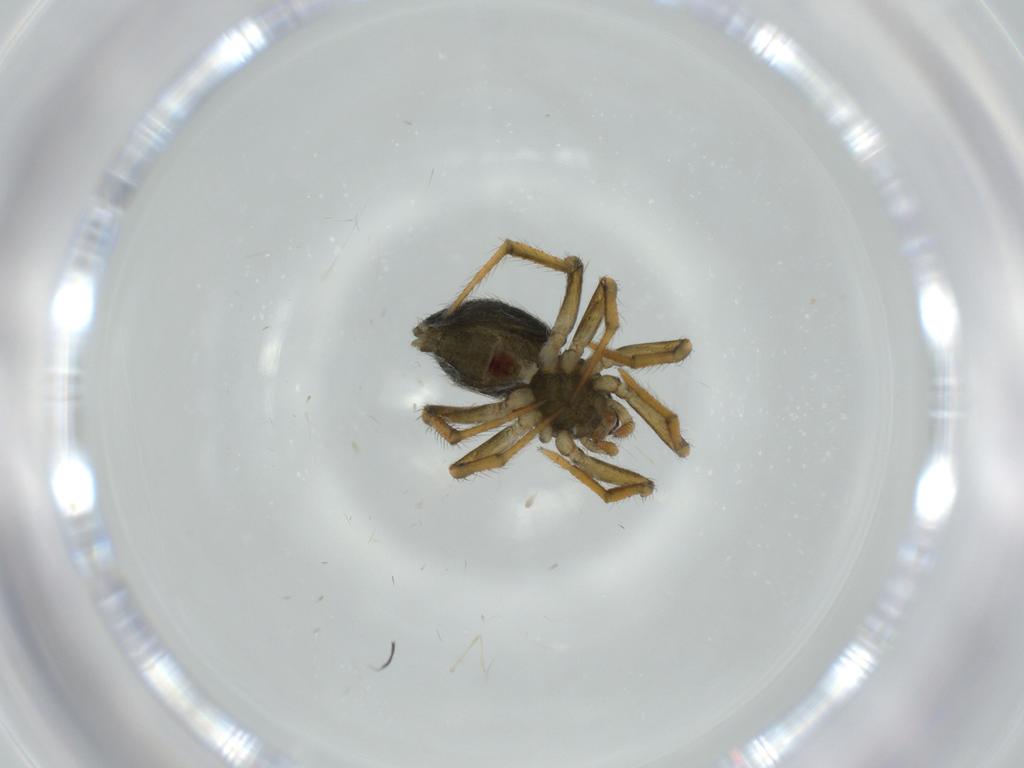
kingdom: Animalia
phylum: Arthropoda
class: Arachnida
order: Araneae
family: Theridiidae
